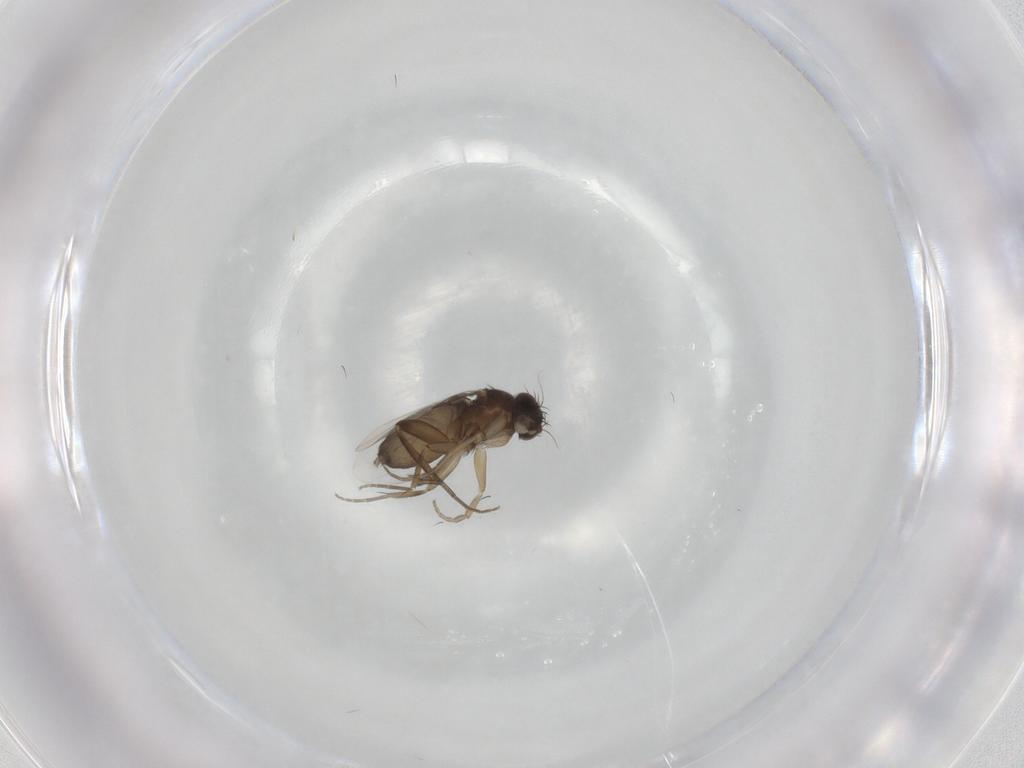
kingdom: Animalia
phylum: Arthropoda
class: Insecta
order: Diptera
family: Phoridae
